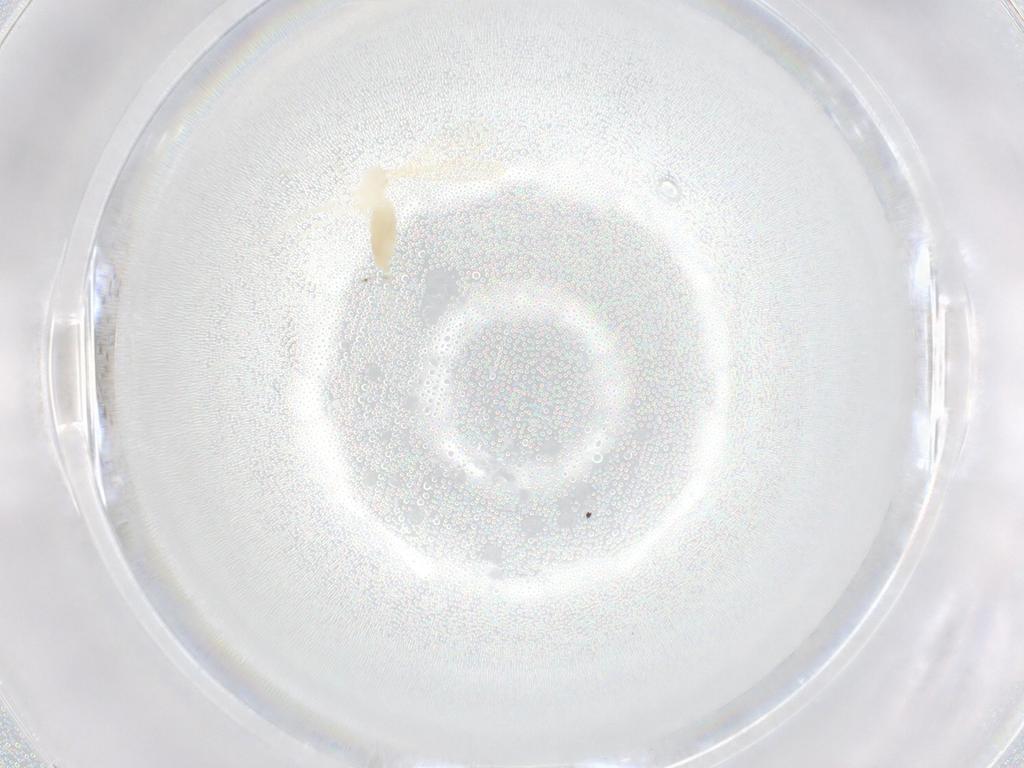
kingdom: Animalia
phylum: Arthropoda
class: Insecta
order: Diptera
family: Cecidomyiidae
